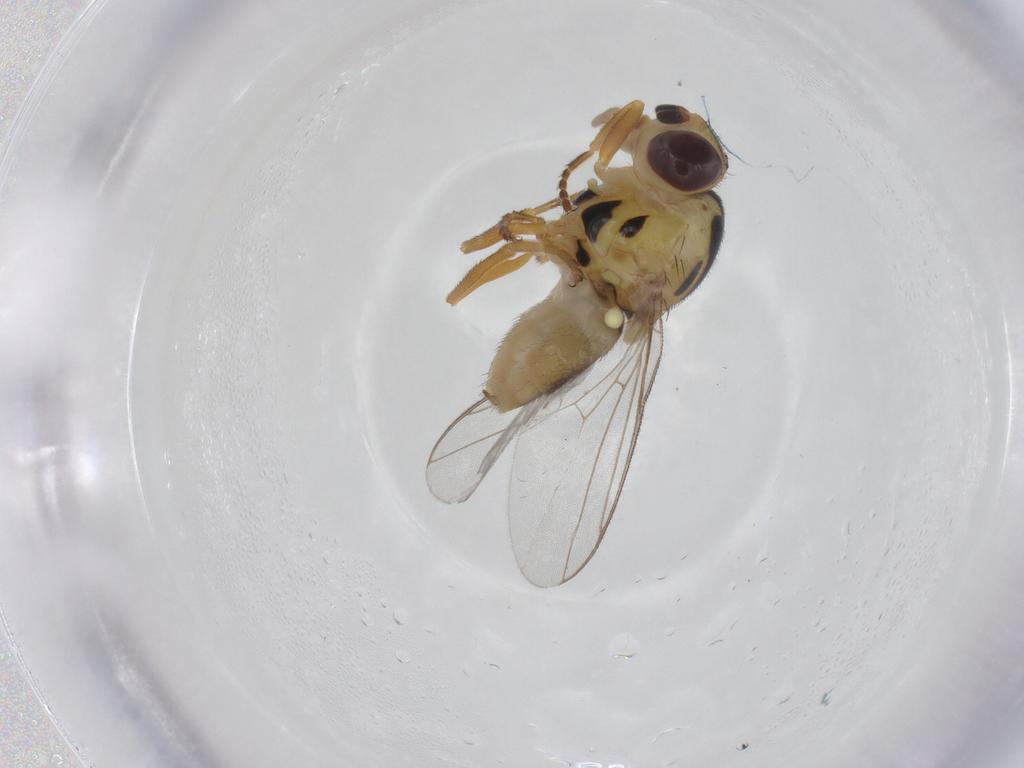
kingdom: Animalia
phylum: Arthropoda
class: Insecta
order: Diptera
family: Chloropidae
